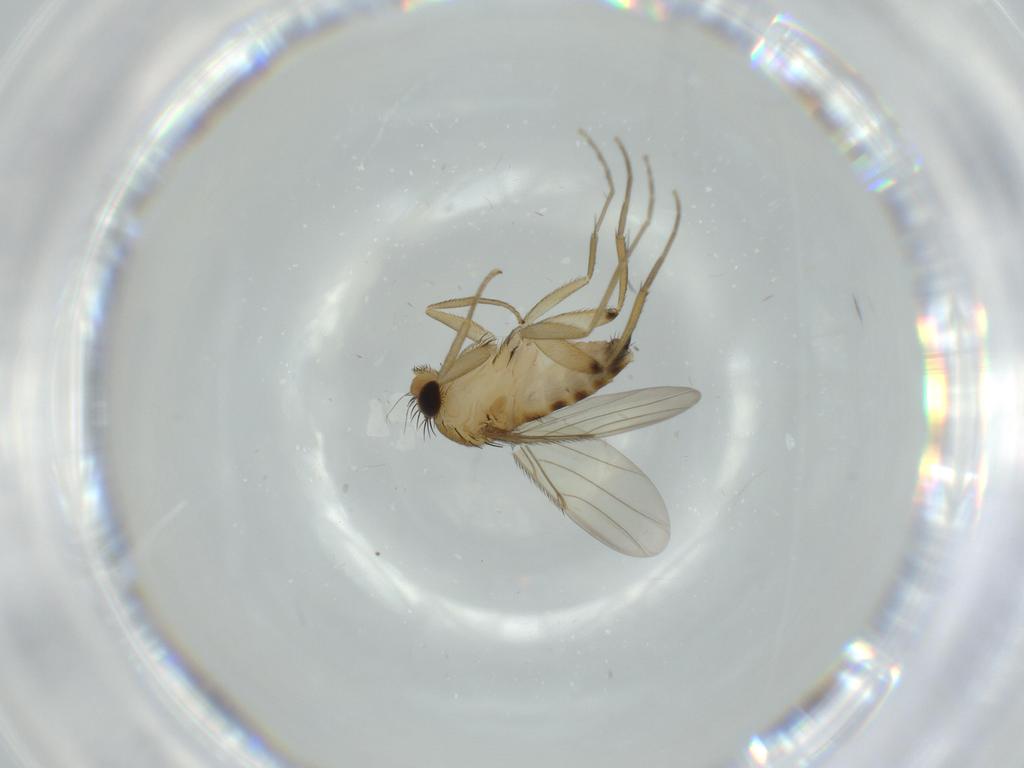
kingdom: Animalia
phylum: Arthropoda
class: Insecta
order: Diptera
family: Phoridae
